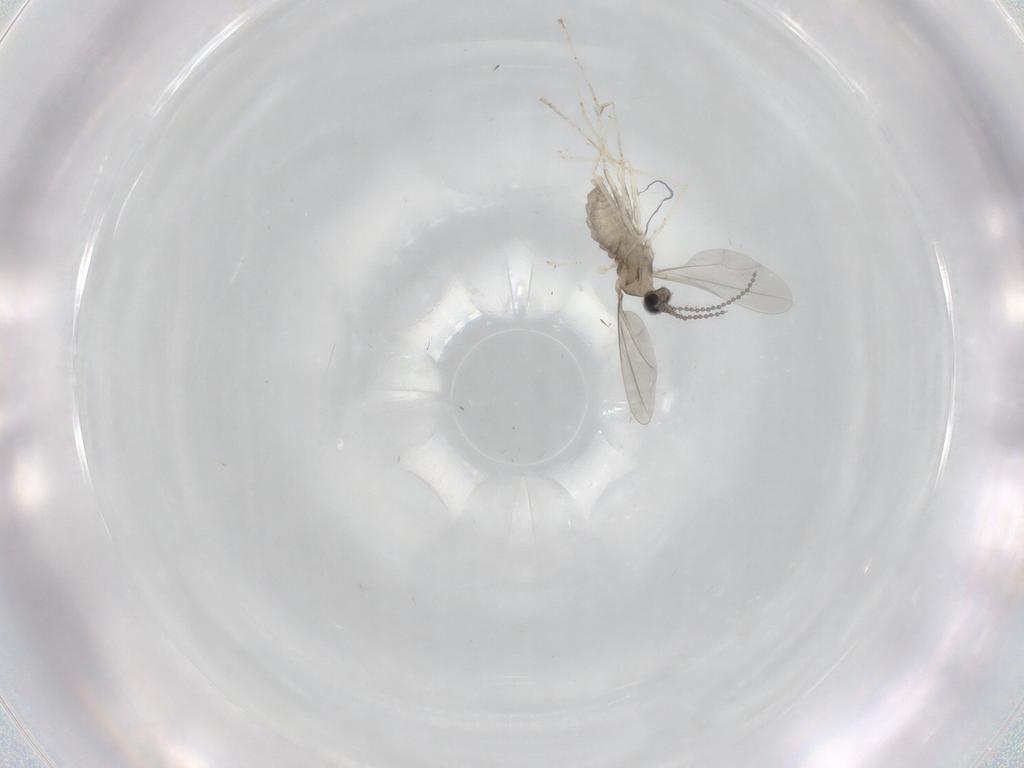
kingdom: Animalia
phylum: Arthropoda
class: Insecta
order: Diptera
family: Cecidomyiidae
